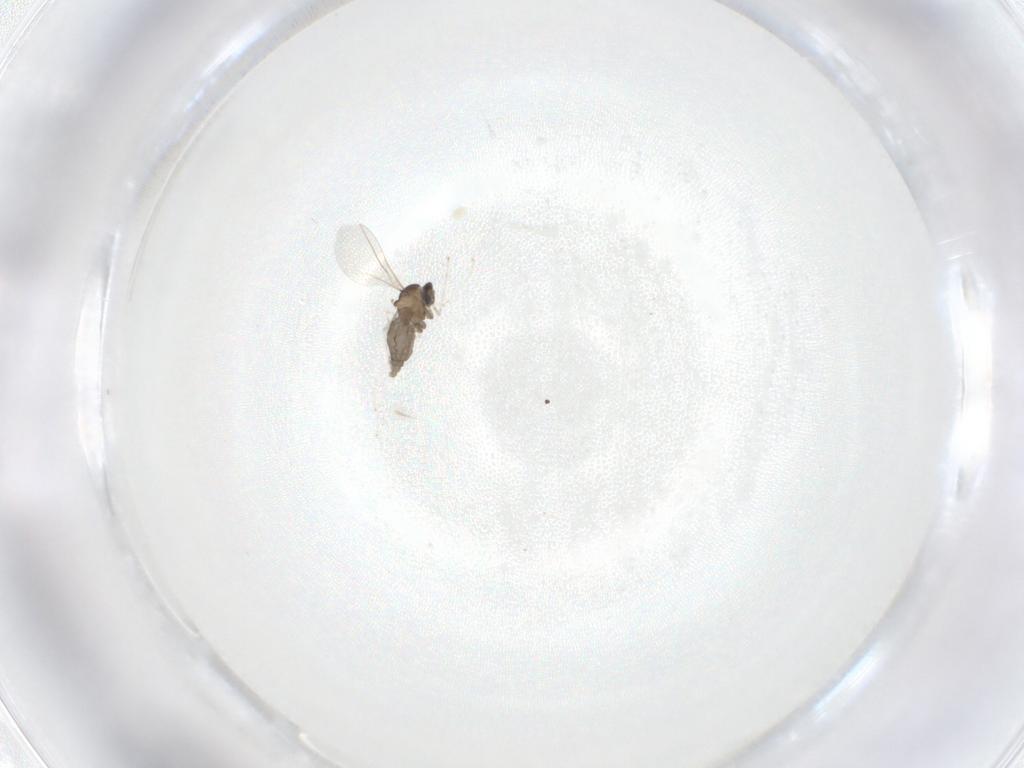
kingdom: Animalia
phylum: Arthropoda
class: Insecta
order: Diptera
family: Cecidomyiidae
